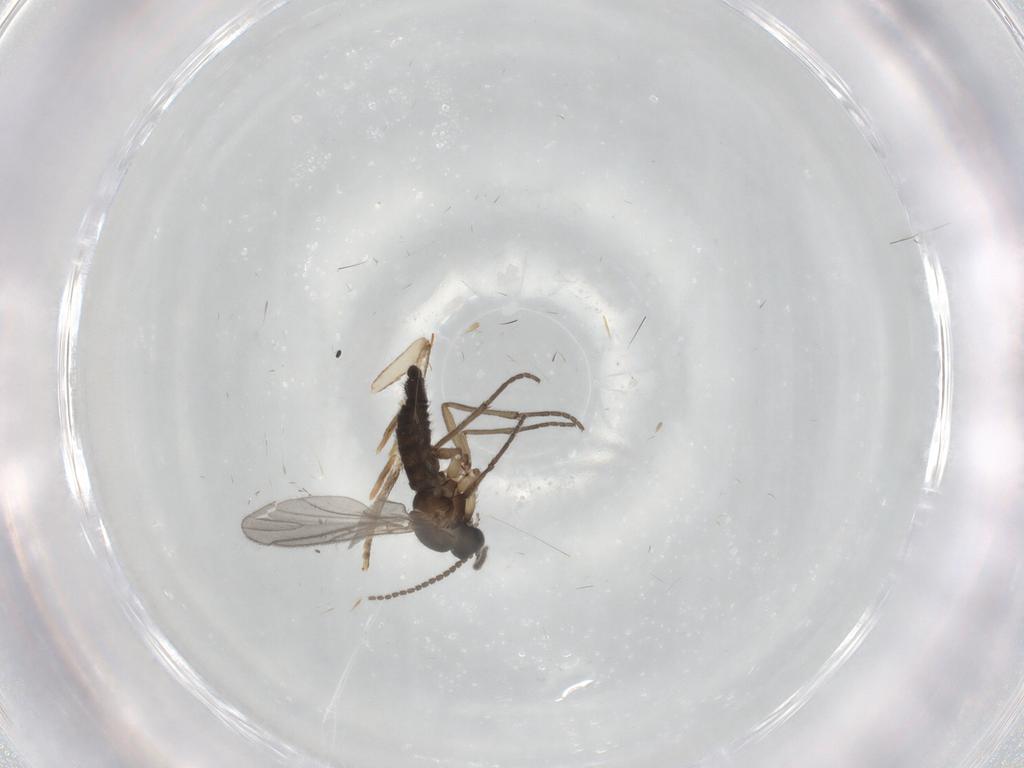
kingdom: Animalia
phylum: Arthropoda
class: Insecta
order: Diptera
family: Sciaridae
